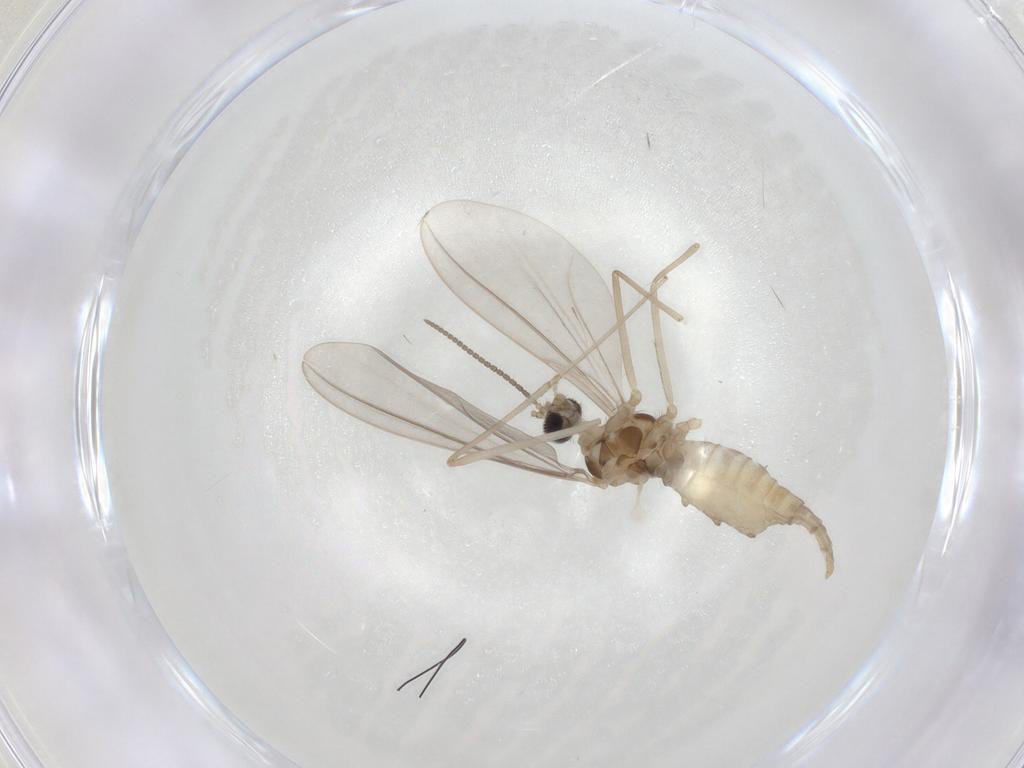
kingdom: Animalia
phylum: Arthropoda
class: Insecta
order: Diptera
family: Cecidomyiidae
